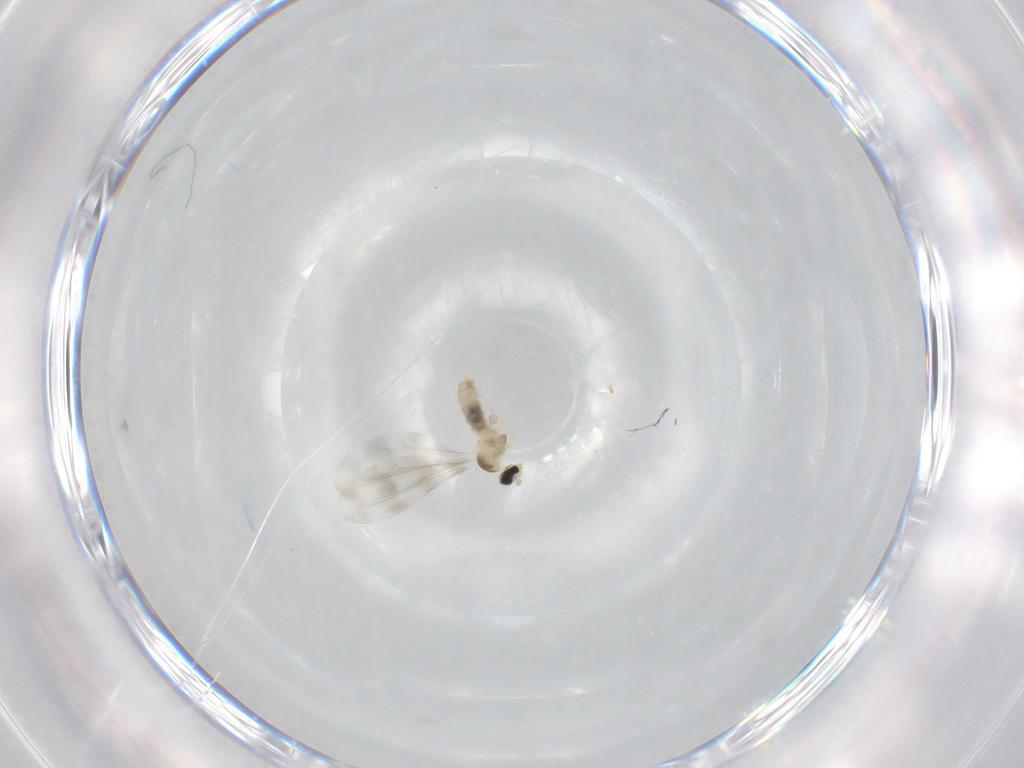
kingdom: Animalia
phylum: Arthropoda
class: Insecta
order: Diptera
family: Cecidomyiidae
